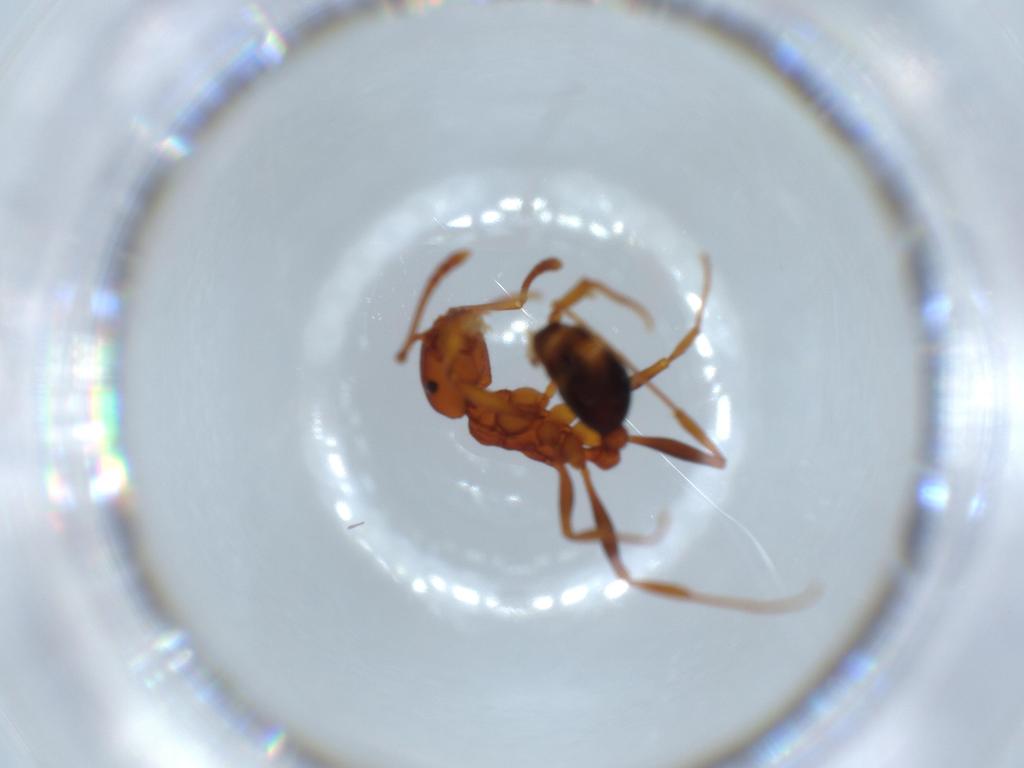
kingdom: Animalia
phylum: Arthropoda
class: Insecta
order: Hymenoptera
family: Formicidae
